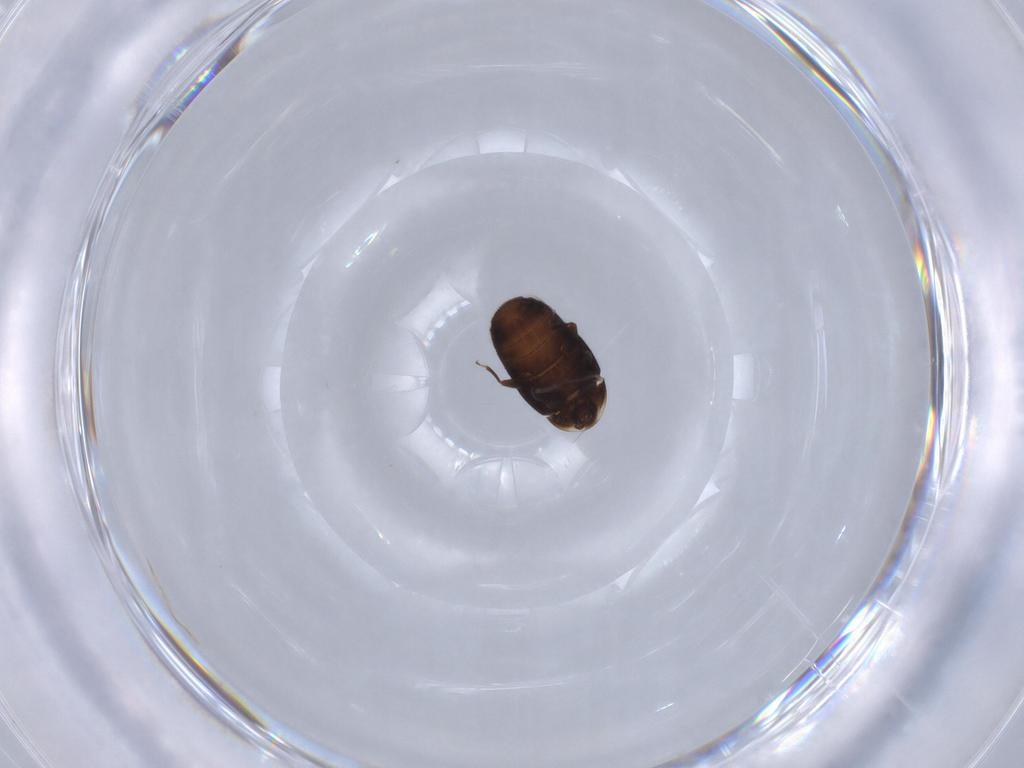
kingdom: Animalia
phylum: Arthropoda
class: Insecta
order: Coleoptera
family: Corylophidae
